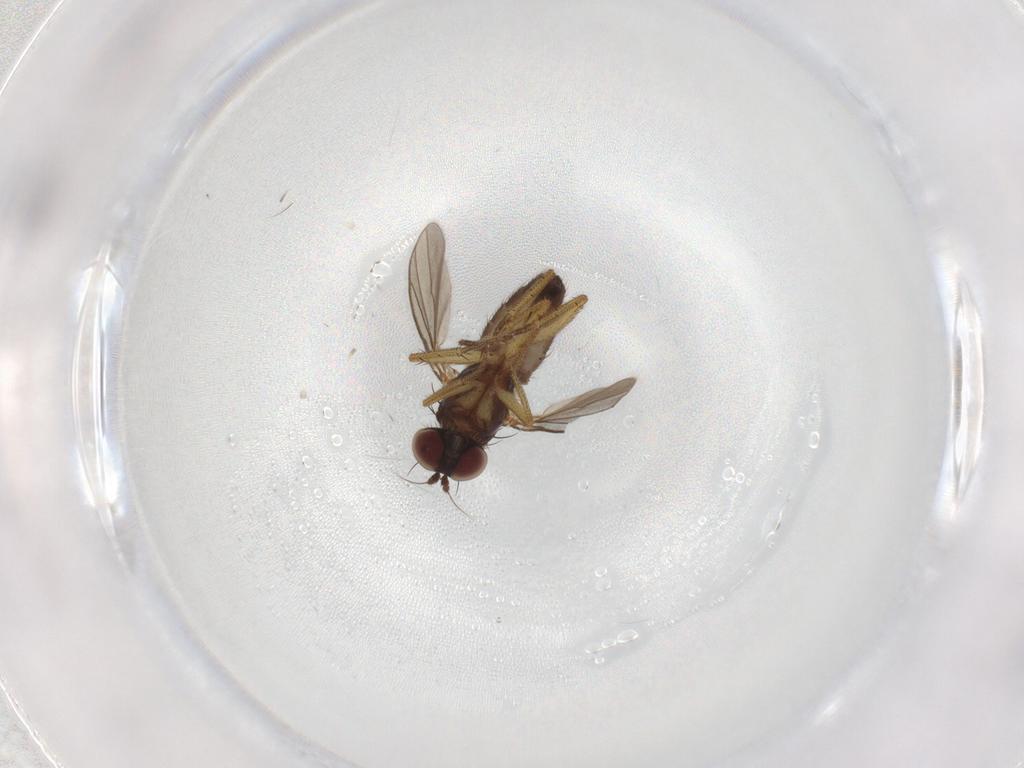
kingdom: Animalia
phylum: Arthropoda
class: Insecta
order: Diptera
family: Dolichopodidae
